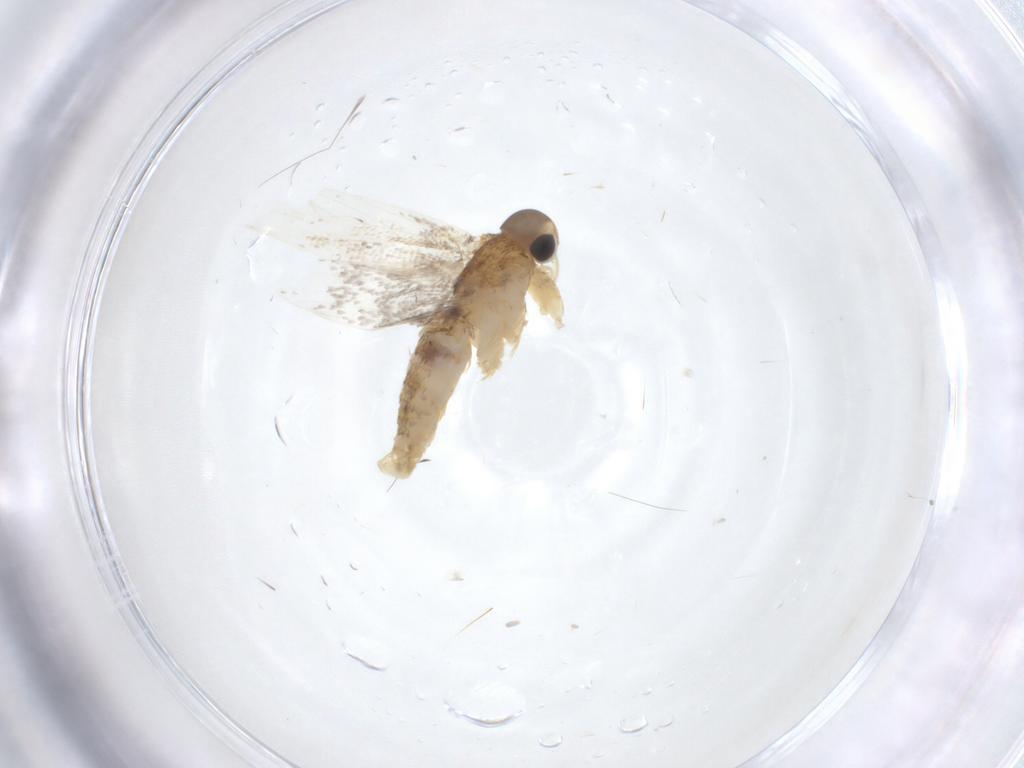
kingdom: Animalia
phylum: Arthropoda
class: Insecta
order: Lepidoptera
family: Oecophoridae
